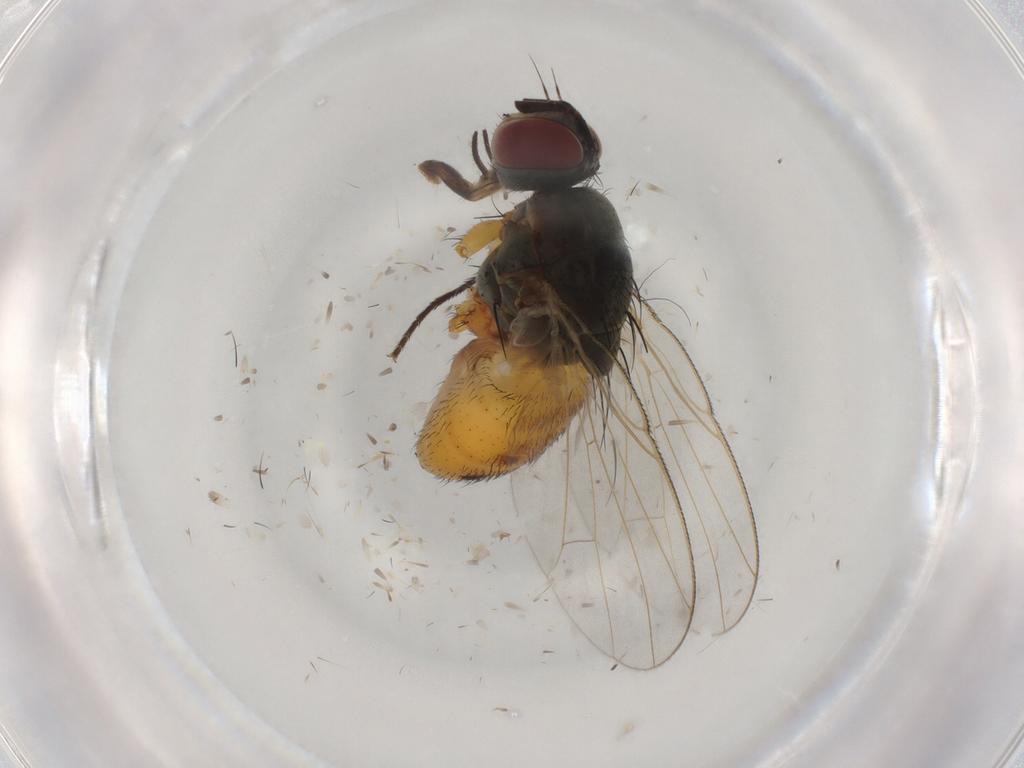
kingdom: Animalia
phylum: Arthropoda
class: Insecta
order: Diptera
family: Muscidae
